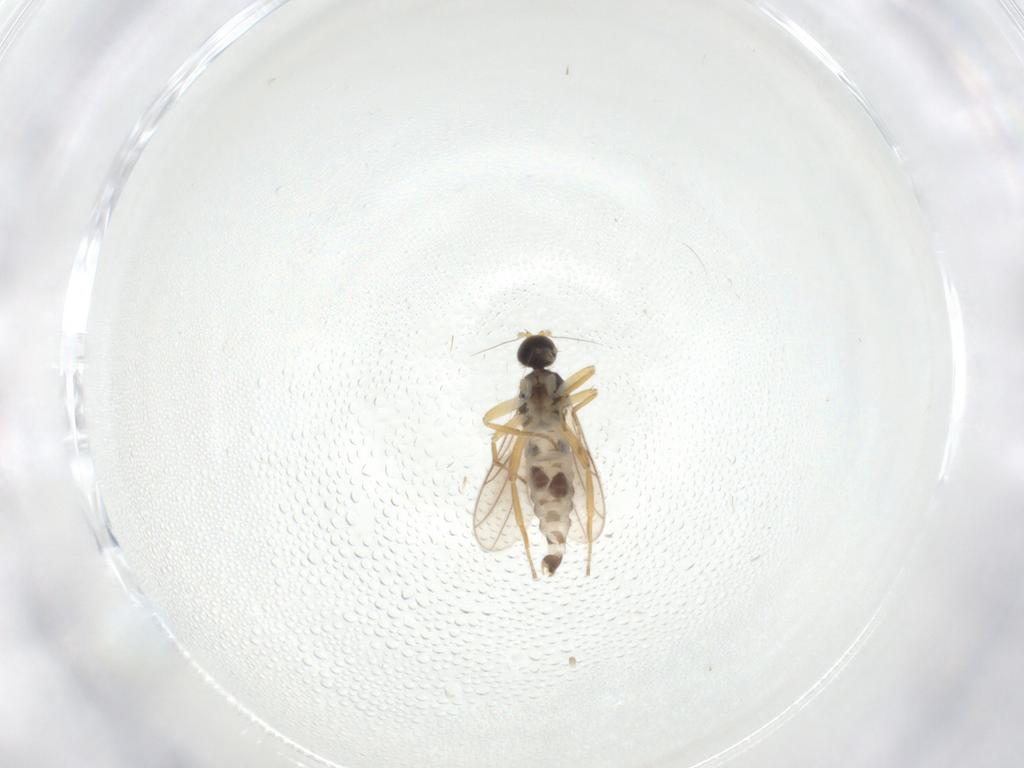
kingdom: Animalia
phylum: Arthropoda
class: Insecta
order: Diptera
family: Hybotidae
